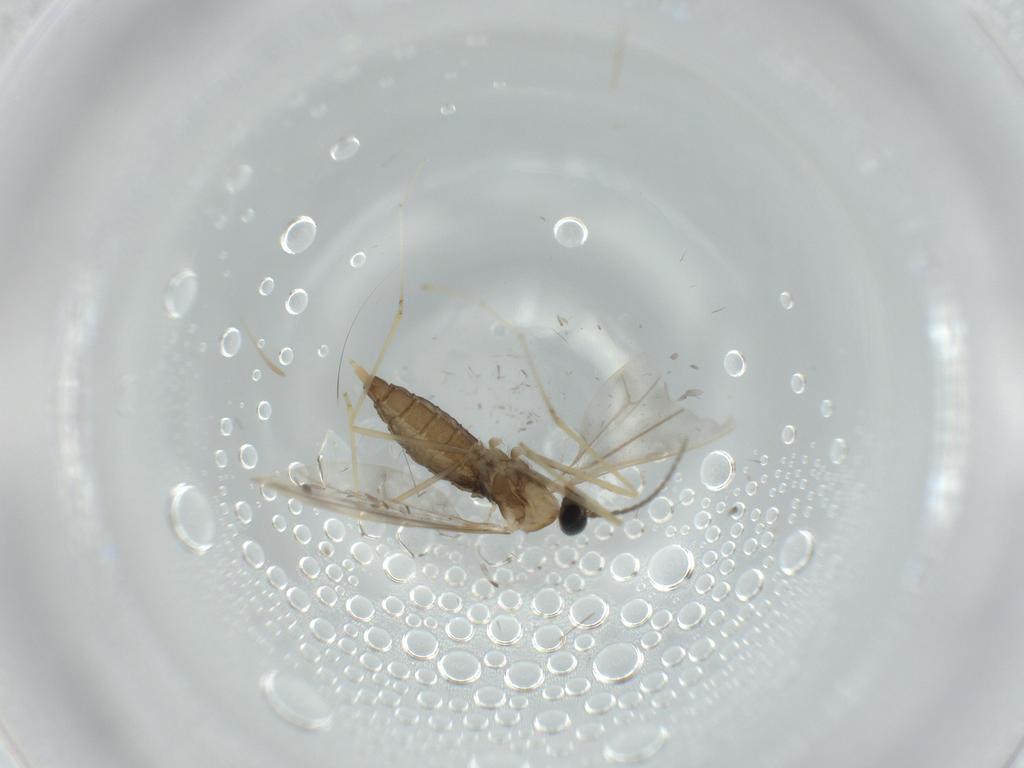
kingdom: Animalia
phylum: Arthropoda
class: Insecta
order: Diptera
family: Cecidomyiidae
